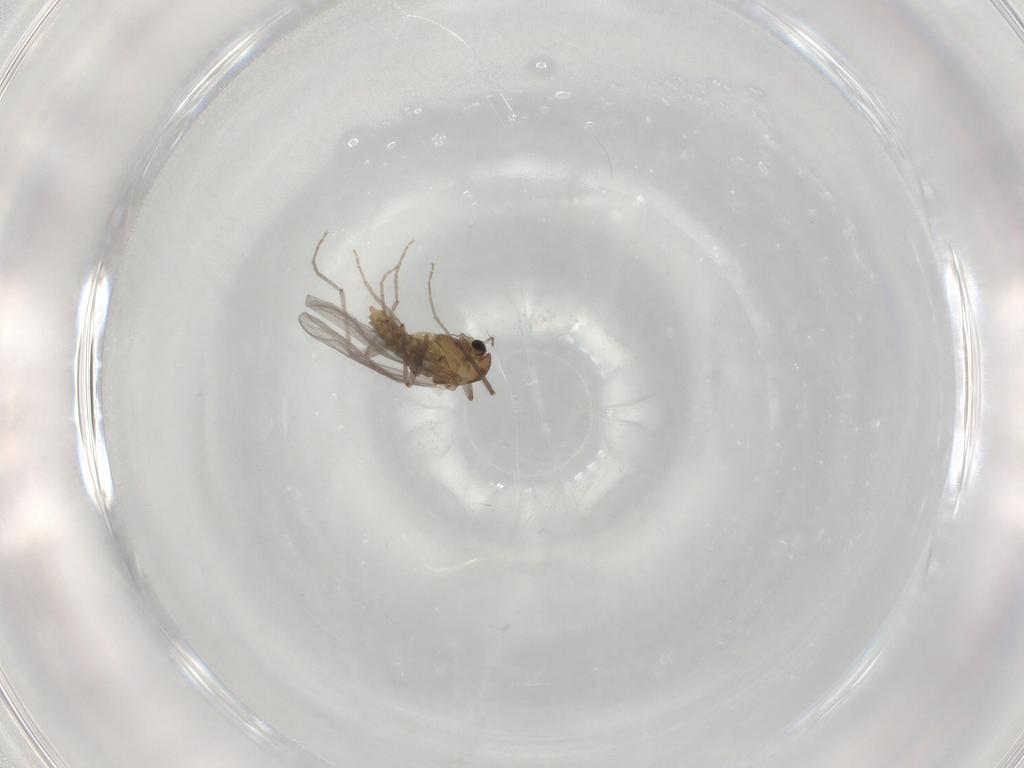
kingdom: Animalia
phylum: Arthropoda
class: Insecta
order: Diptera
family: Chironomidae
